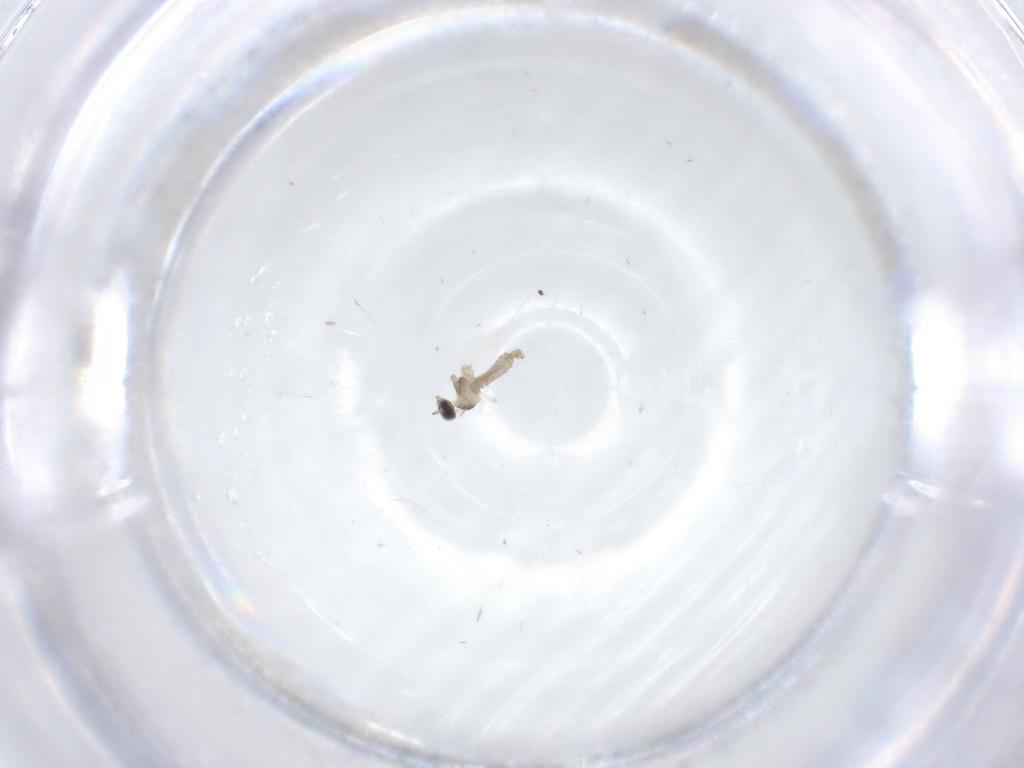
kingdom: Animalia
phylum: Arthropoda
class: Insecta
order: Diptera
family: Cecidomyiidae
